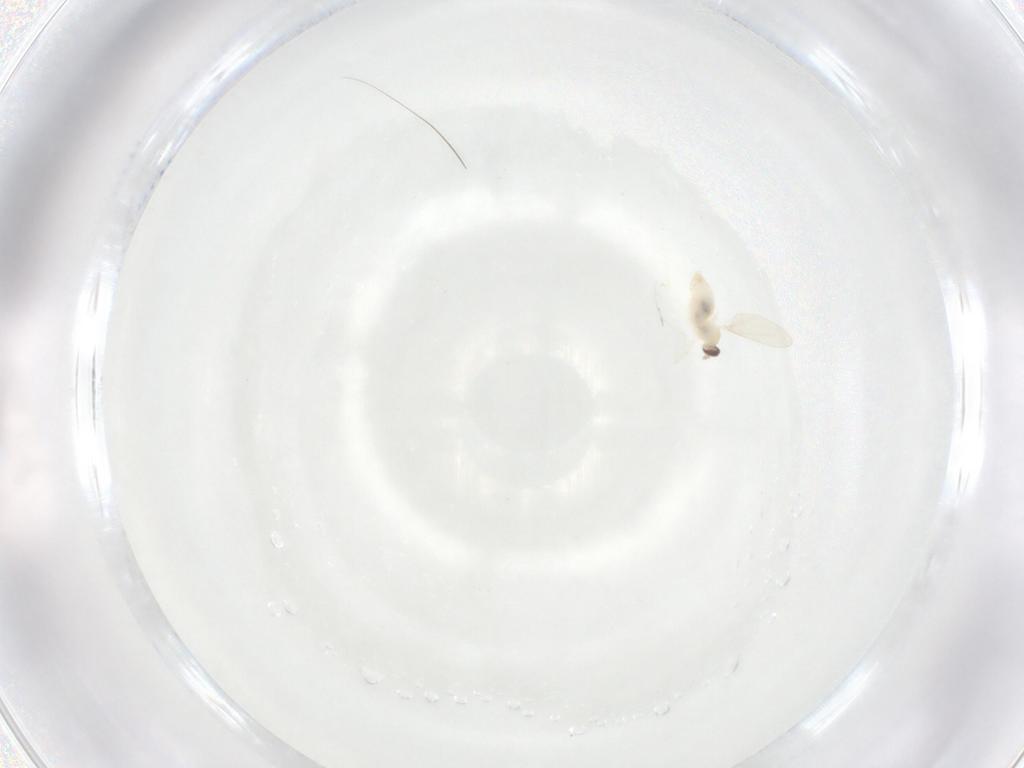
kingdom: Animalia
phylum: Arthropoda
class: Insecta
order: Diptera
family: Cecidomyiidae
